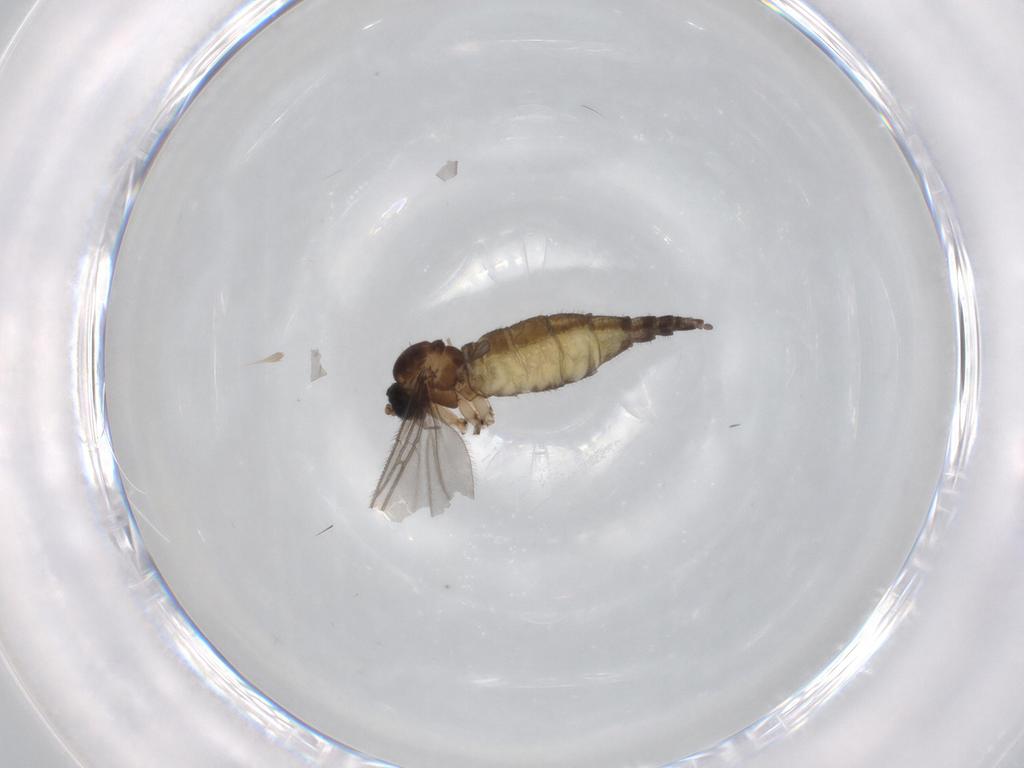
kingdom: Animalia
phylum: Arthropoda
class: Insecta
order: Diptera
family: Sciaridae
